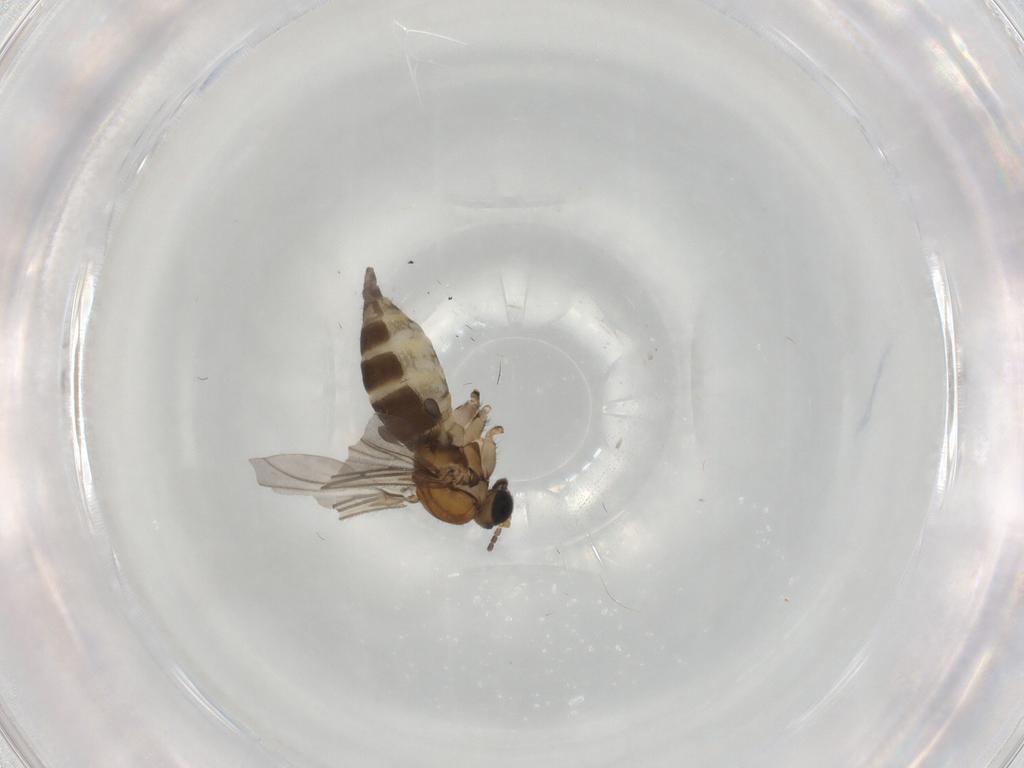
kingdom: Animalia
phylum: Arthropoda
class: Insecta
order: Diptera
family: Sciaridae
